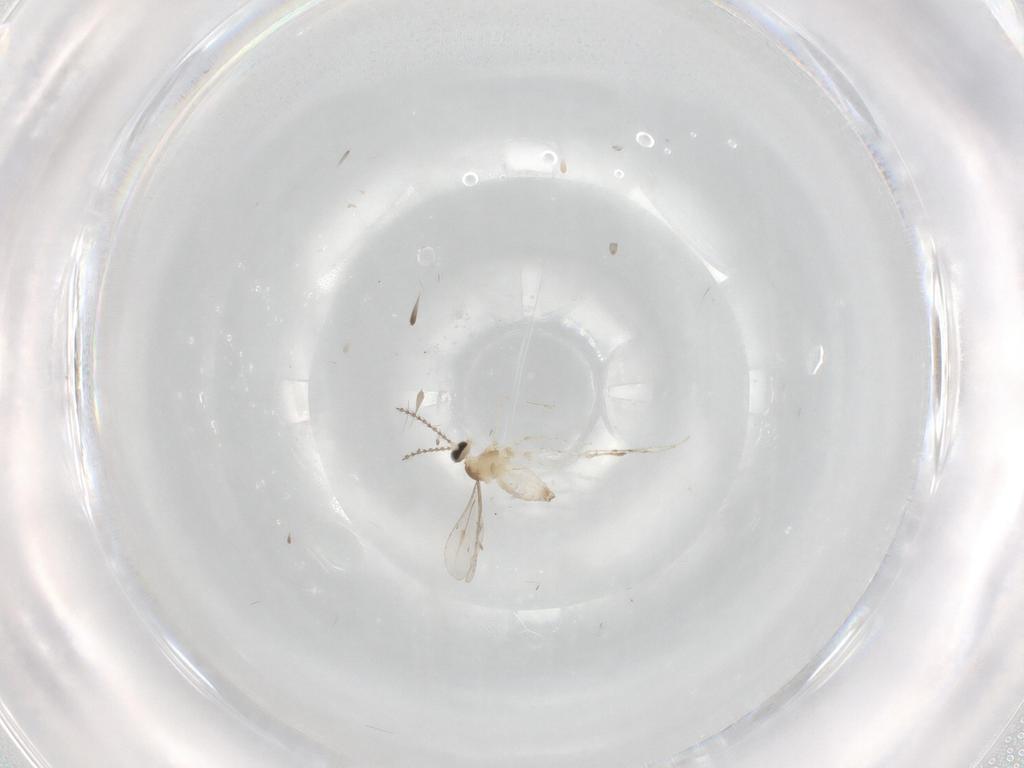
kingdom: Animalia
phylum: Arthropoda
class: Insecta
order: Diptera
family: Cecidomyiidae
